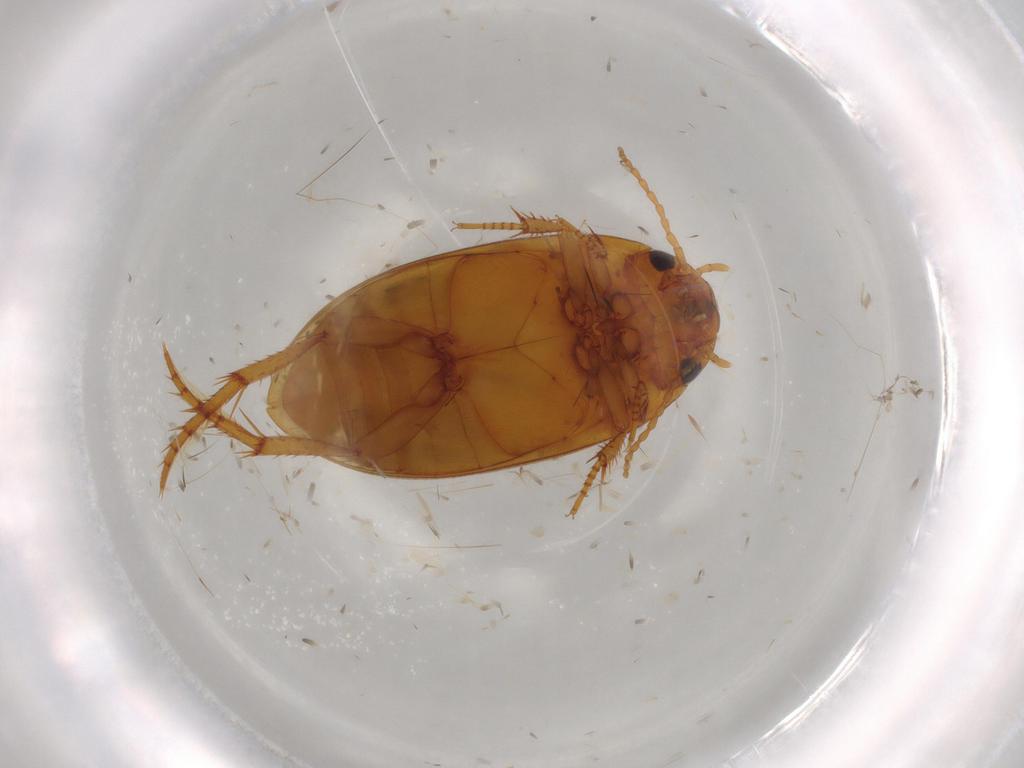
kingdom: Animalia
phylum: Arthropoda
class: Insecta
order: Coleoptera
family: Dytiscidae
